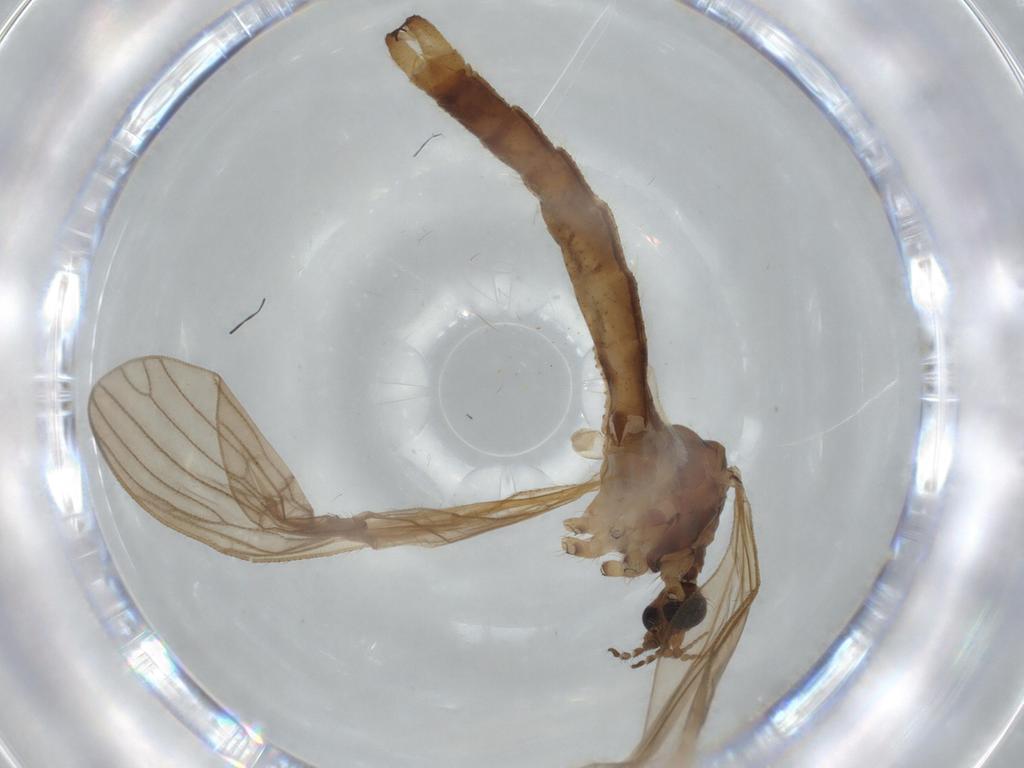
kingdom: Animalia
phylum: Arthropoda
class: Insecta
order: Diptera
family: Limoniidae
